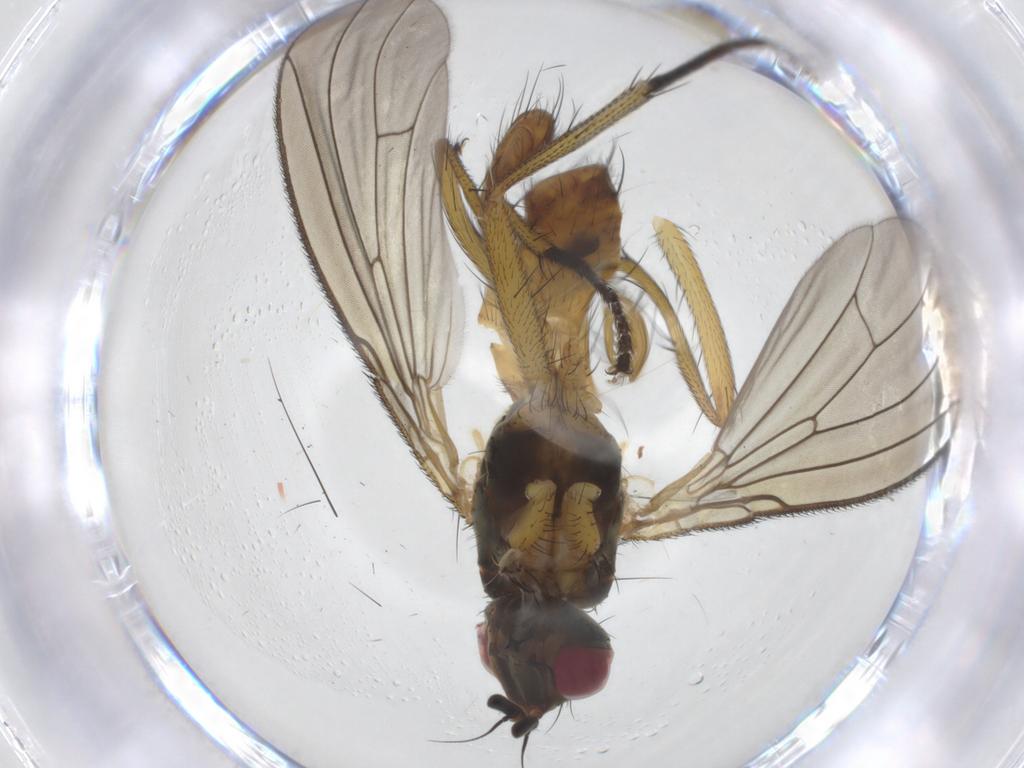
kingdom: Animalia
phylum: Arthropoda
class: Insecta
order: Diptera
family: Muscidae
